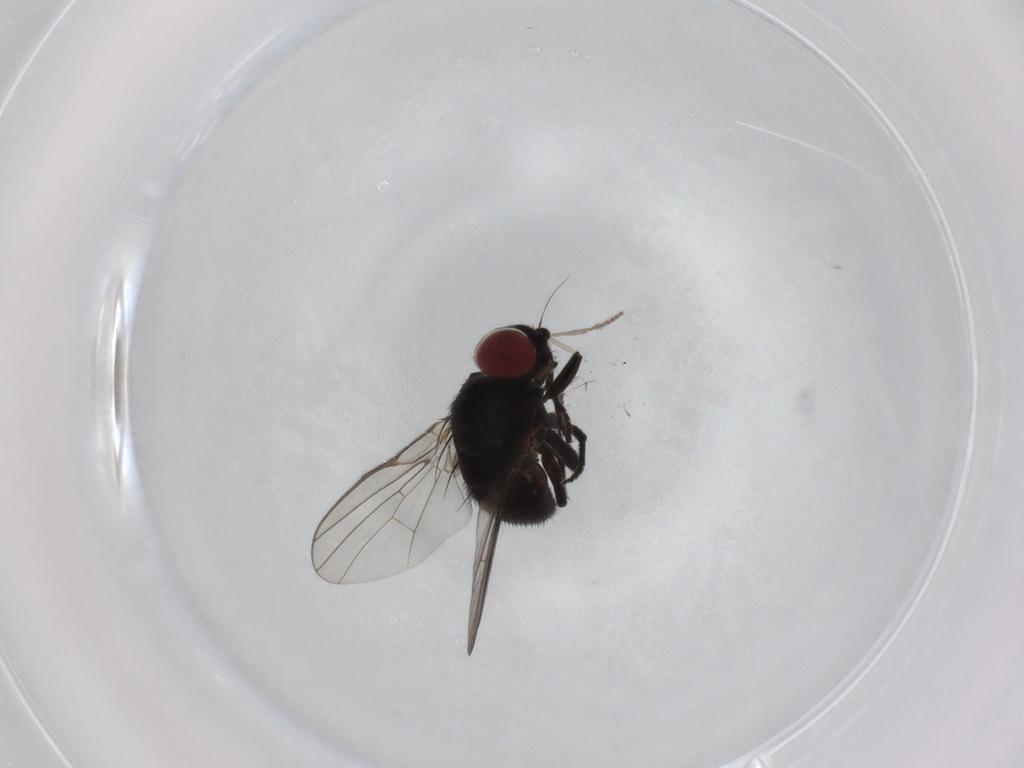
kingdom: Animalia
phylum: Arthropoda
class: Insecta
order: Diptera
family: Agromyzidae
